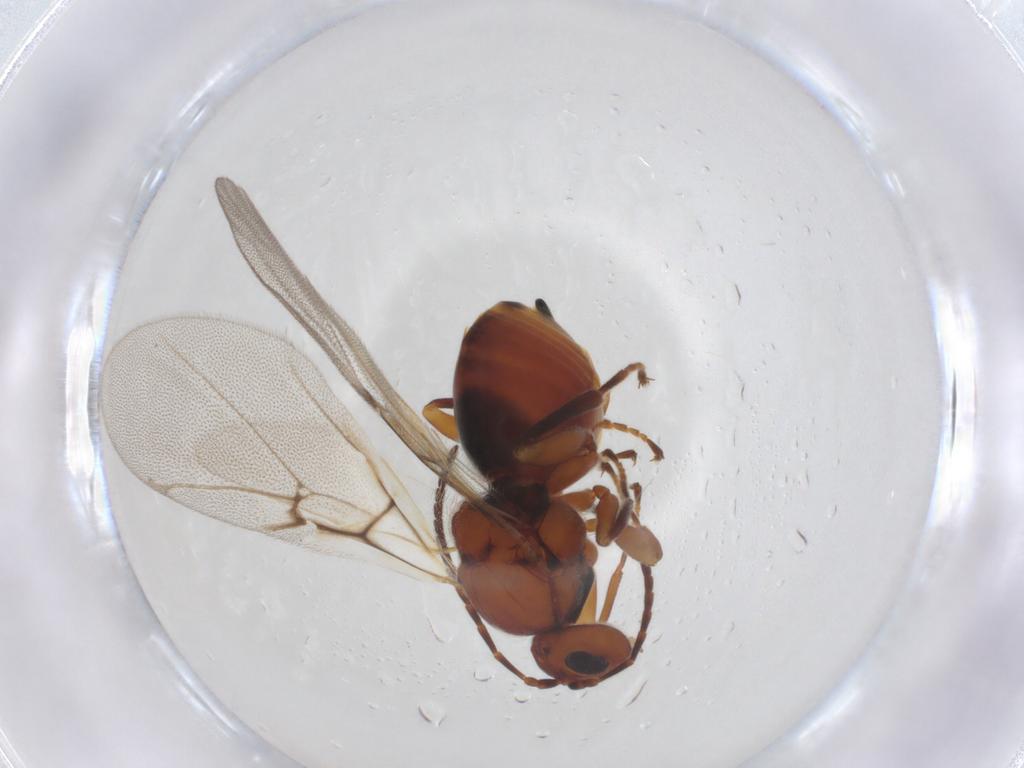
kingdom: Animalia
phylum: Arthropoda
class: Insecta
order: Hymenoptera
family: Cynipidae
